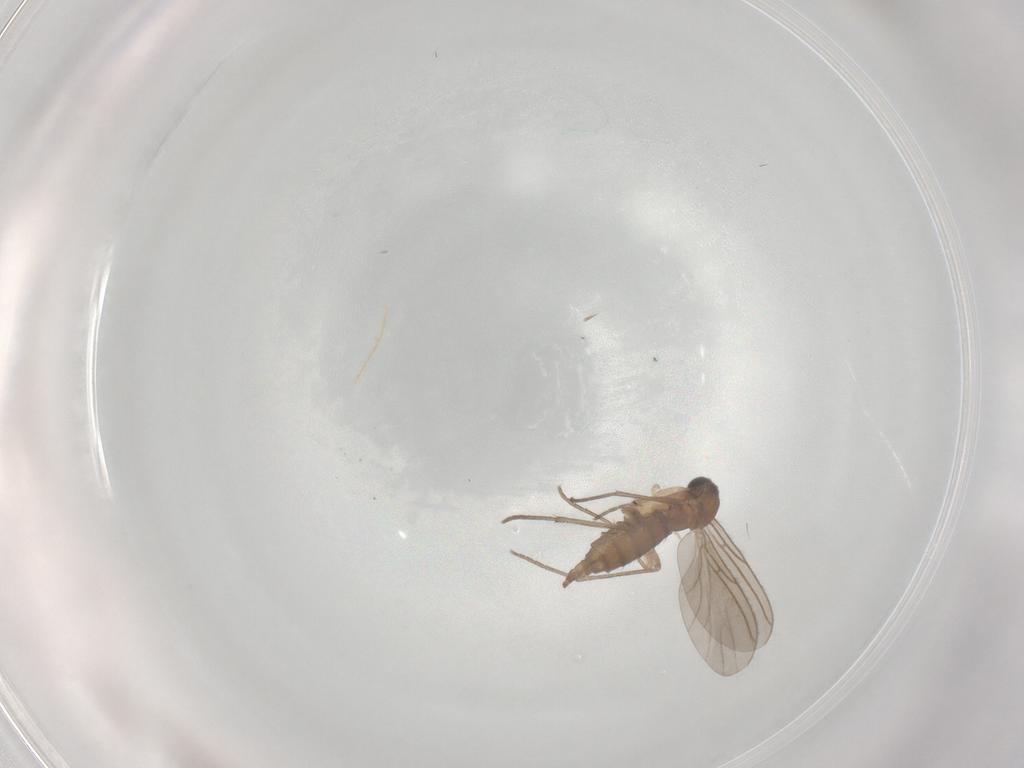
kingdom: Animalia
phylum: Arthropoda
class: Insecta
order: Diptera
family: Sciaridae
